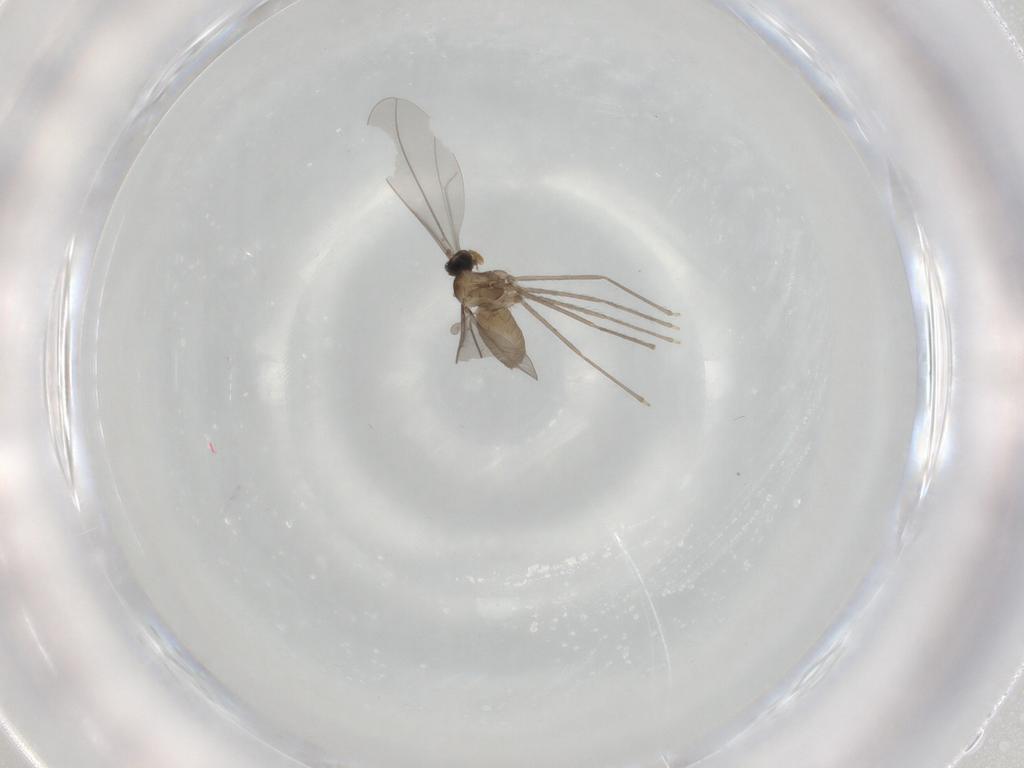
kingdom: Animalia
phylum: Arthropoda
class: Insecta
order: Diptera
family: Cecidomyiidae
